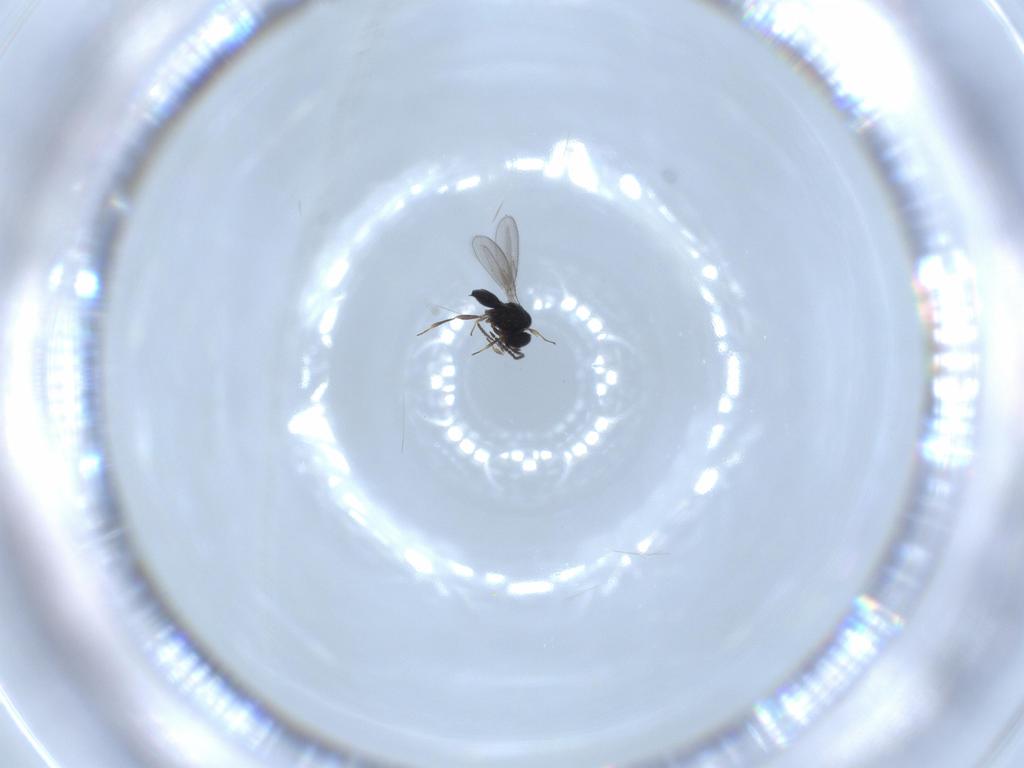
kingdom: Animalia
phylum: Arthropoda
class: Insecta
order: Hymenoptera
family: Scelionidae
